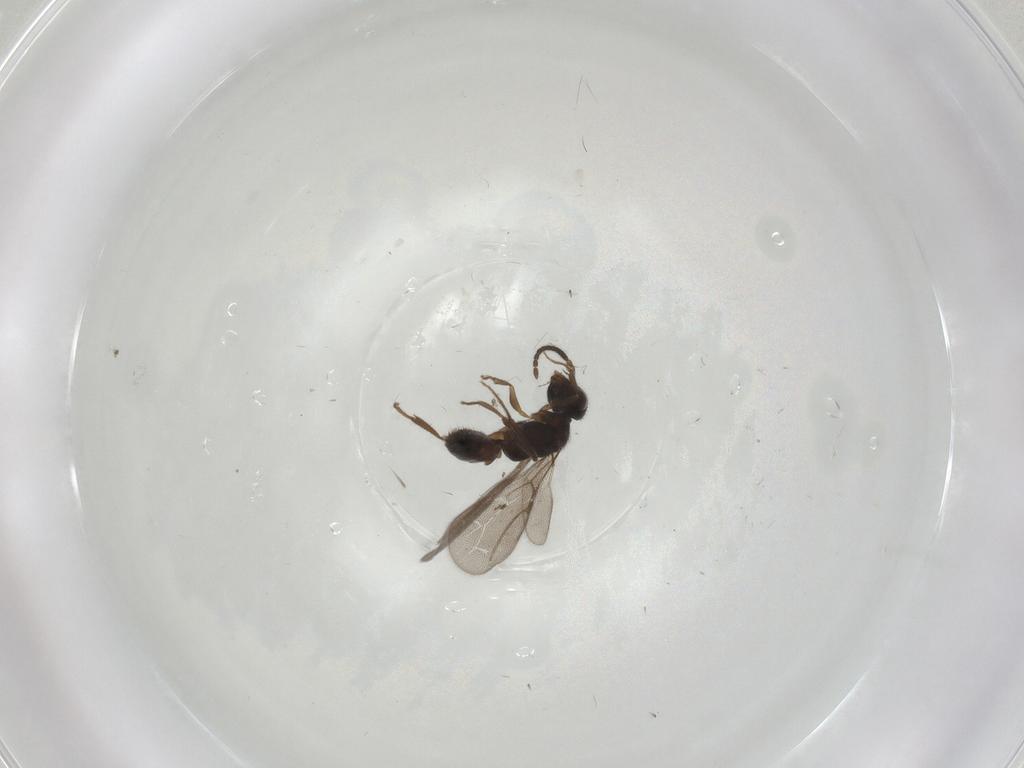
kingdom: Animalia
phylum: Arthropoda
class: Insecta
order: Hymenoptera
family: Bethylidae
